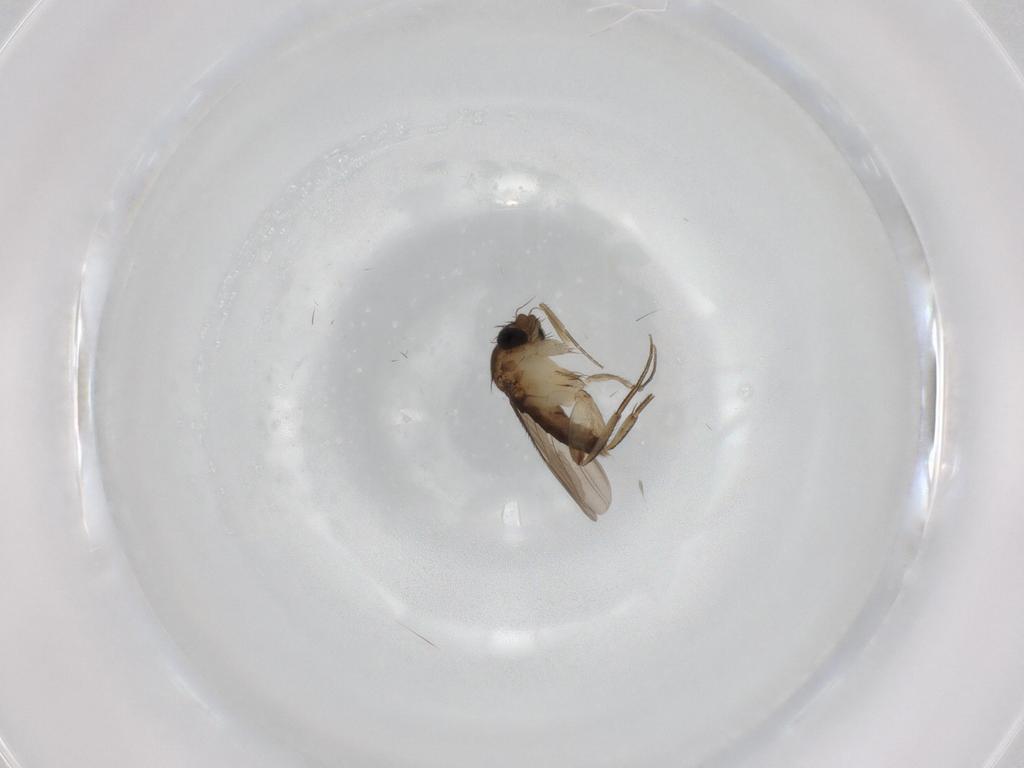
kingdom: Animalia
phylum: Arthropoda
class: Insecta
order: Diptera
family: Phoridae
